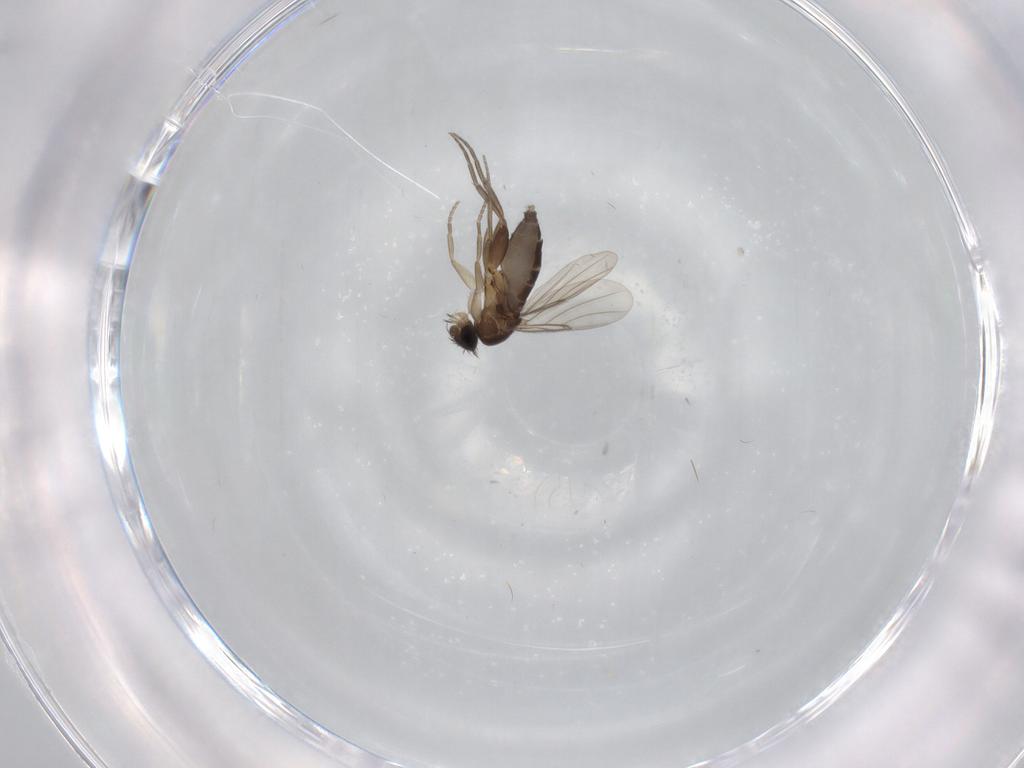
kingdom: Animalia
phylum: Arthropoda
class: Insecta
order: Diptera
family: Phoridae
